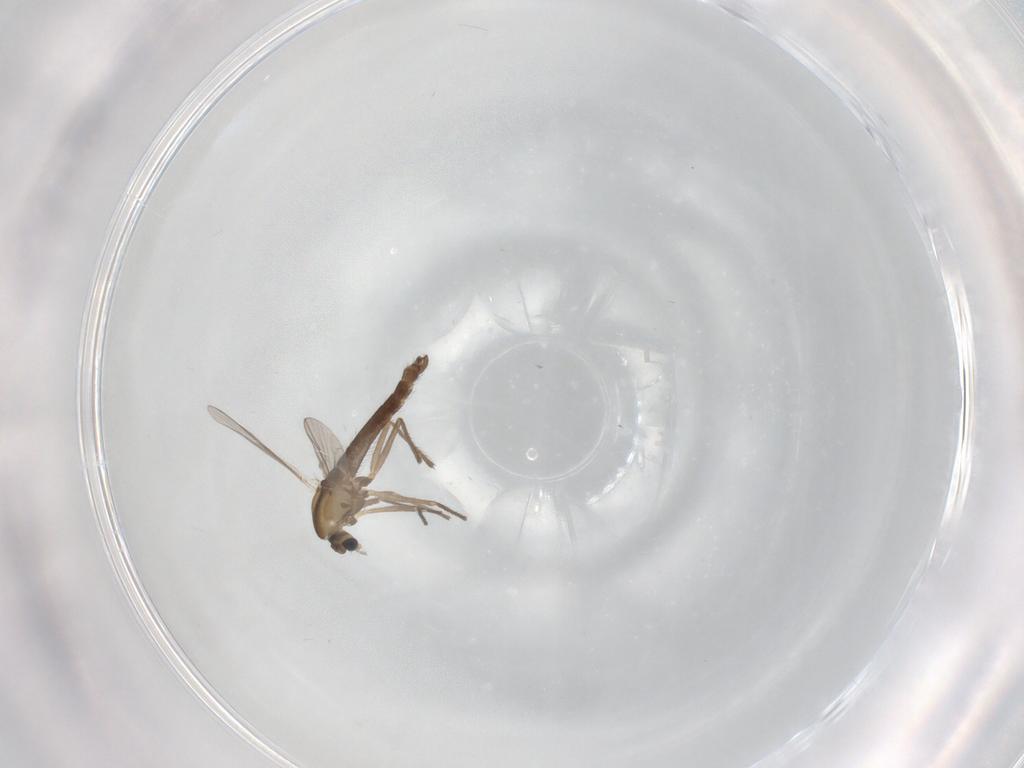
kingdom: Animalia
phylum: Arthropoda
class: Insecta
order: Diptera
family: Chironomidae
